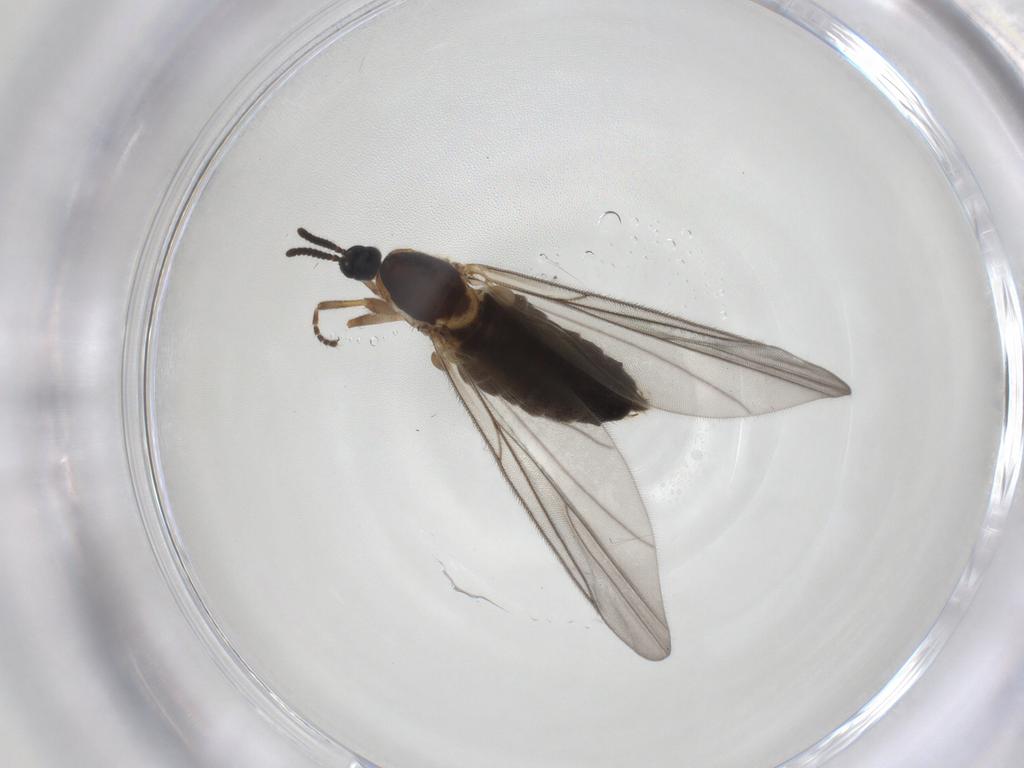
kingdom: Animalia
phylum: Arthropoda
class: Insecta
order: Diptera
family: Scatopsidae
